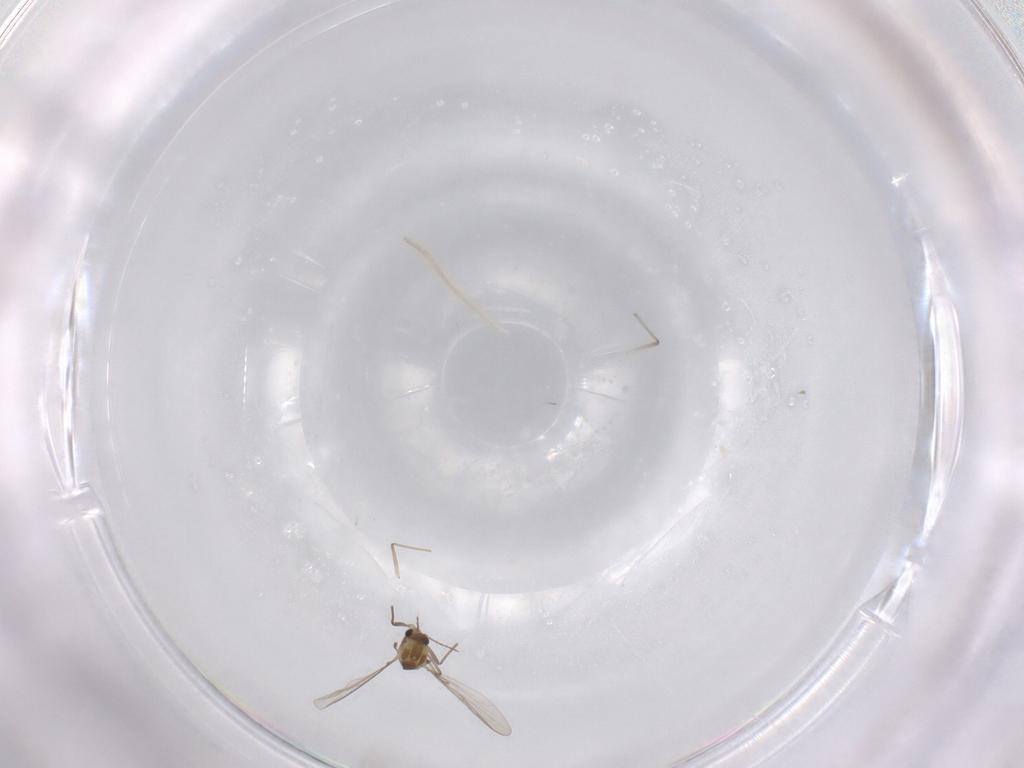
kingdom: Animalia
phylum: Arthropoda
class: Insecta
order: Diptera
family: Chironomidae
